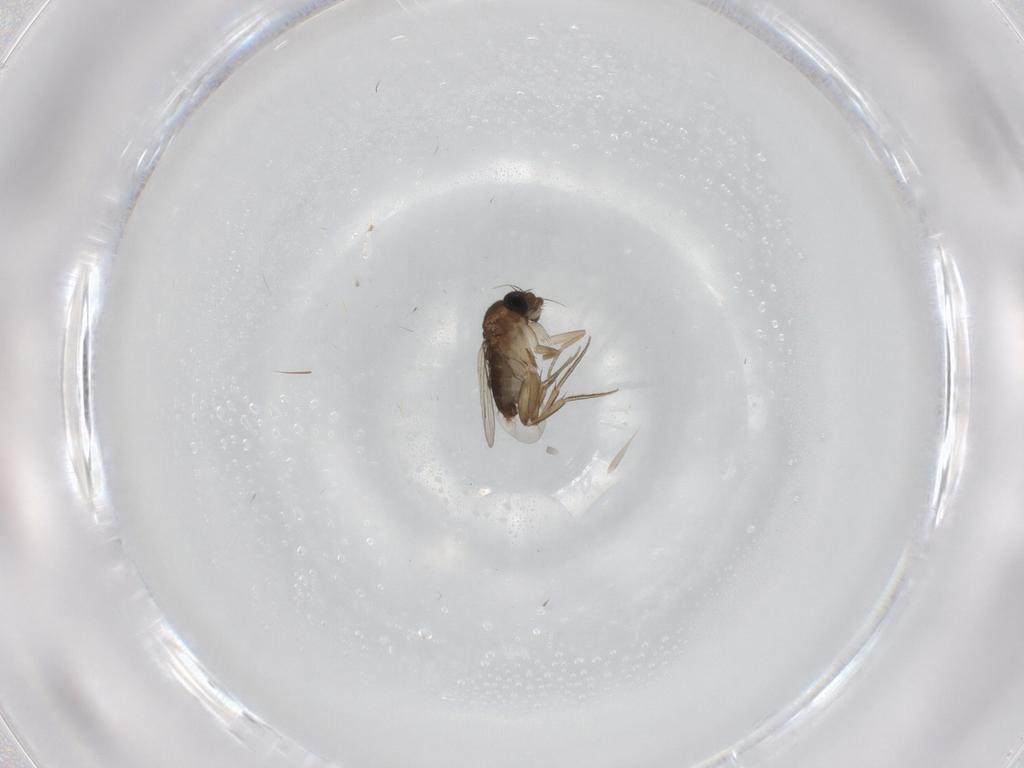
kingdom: Animalia
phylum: Arthropoda
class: Insecta
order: Diptera
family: Phoridae
